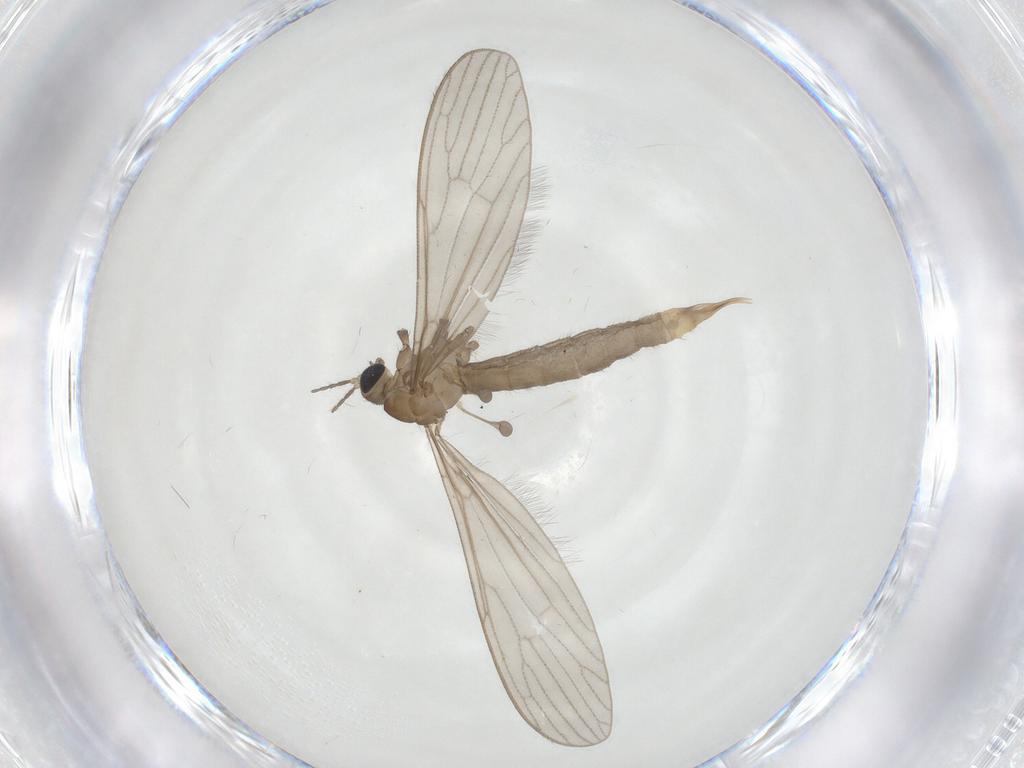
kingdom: Animalia
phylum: Arthropoda
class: Insecta
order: Diptera
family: Limoniidae
